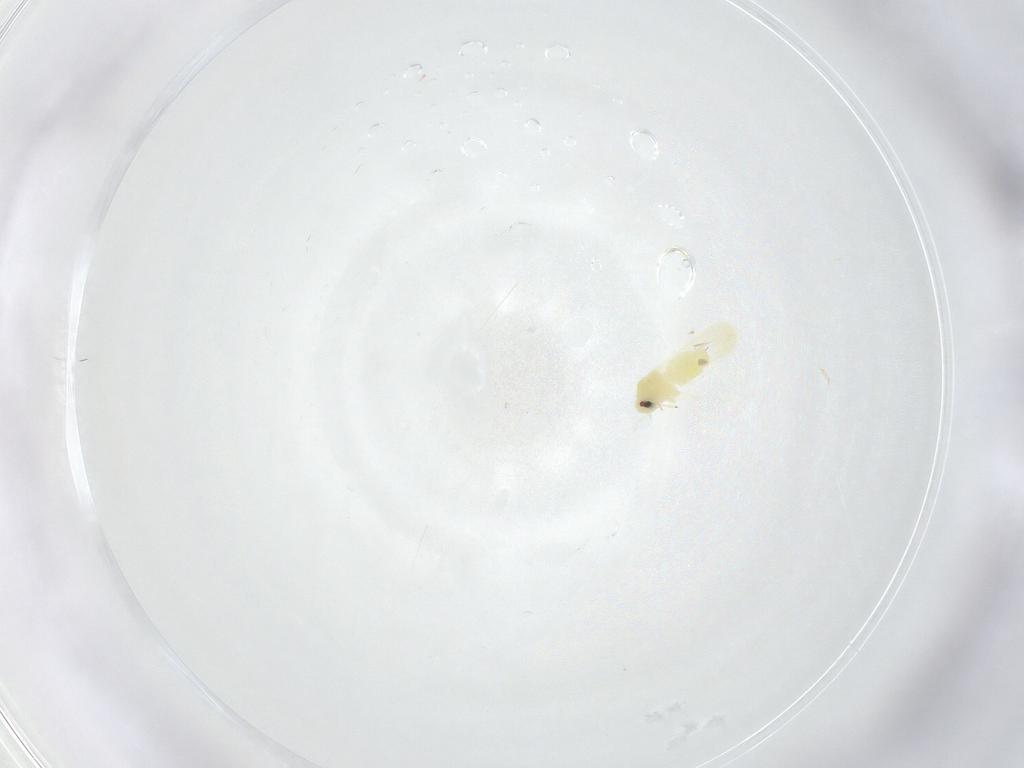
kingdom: Animalia
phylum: Arthropoda
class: Insecta
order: Hemiptera
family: Aleyrodidae
